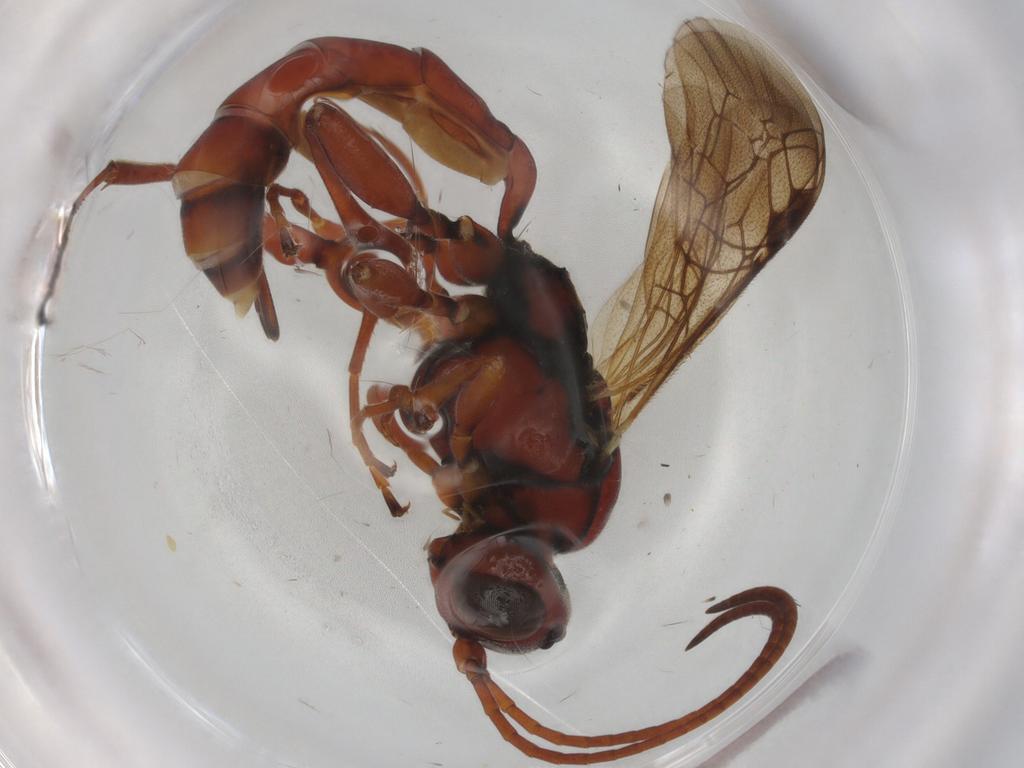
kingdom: Animalia
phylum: Arthropoda
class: Insecta
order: Hymenoptera
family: Ichneumonidae
